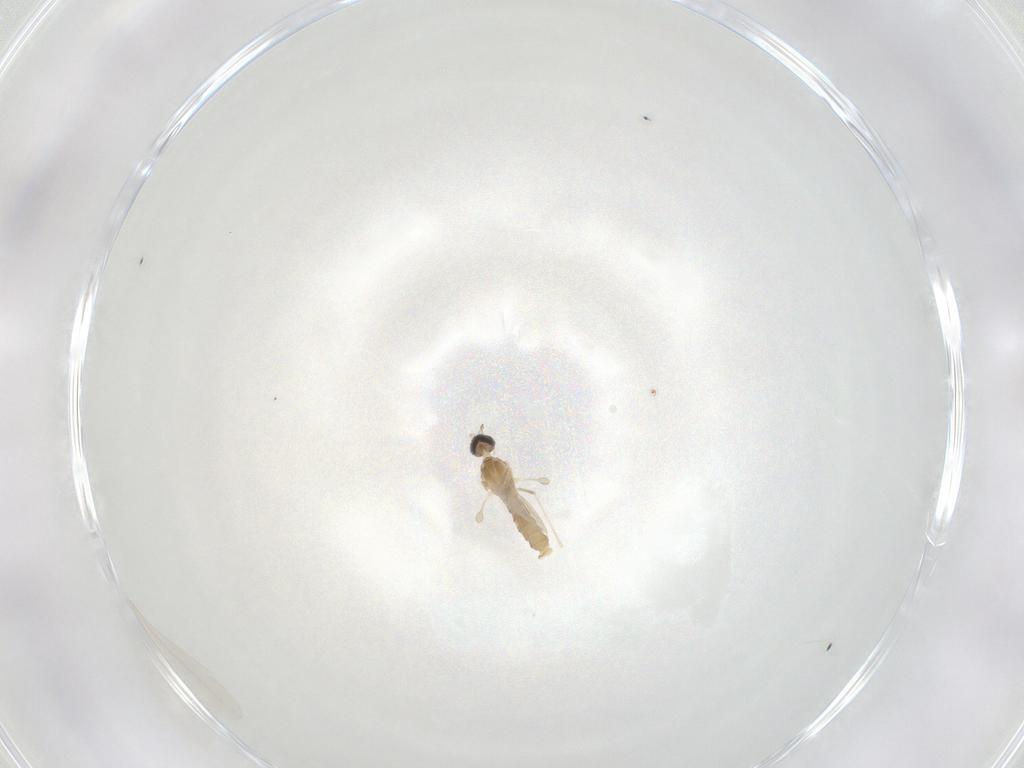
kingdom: Animalia
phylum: Arthropoda
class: Insecta
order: Diptera
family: Cecidomyiidae
